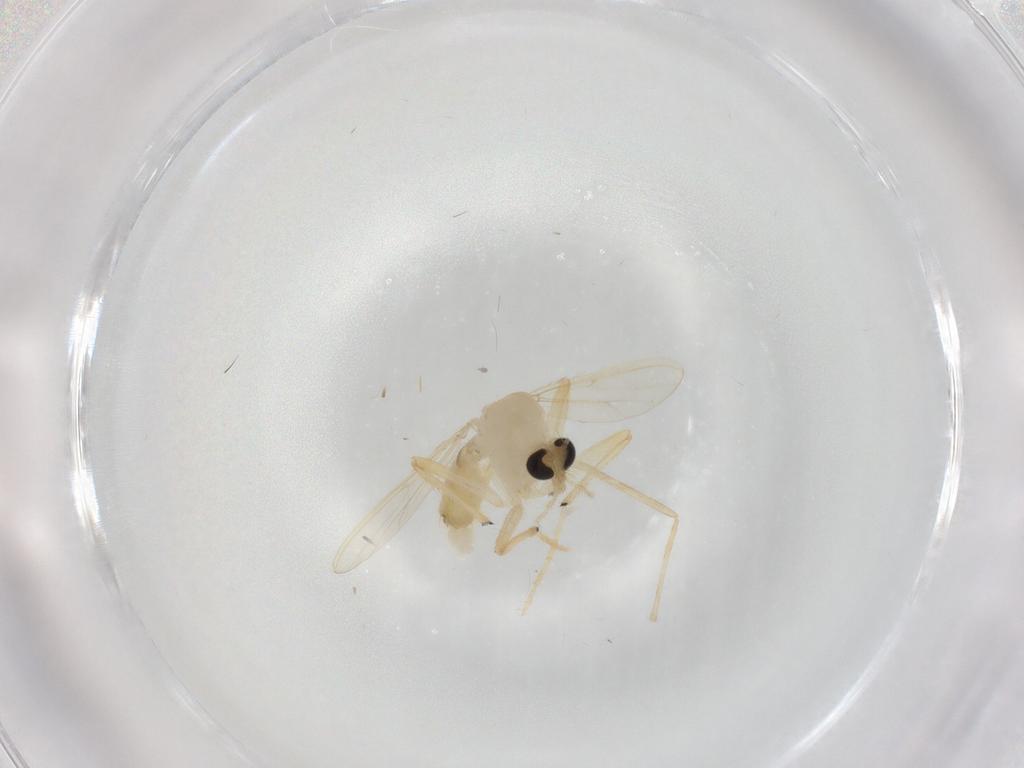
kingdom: Animalia
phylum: Arthropoda
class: Insecta
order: Diptera
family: Chironomidae
